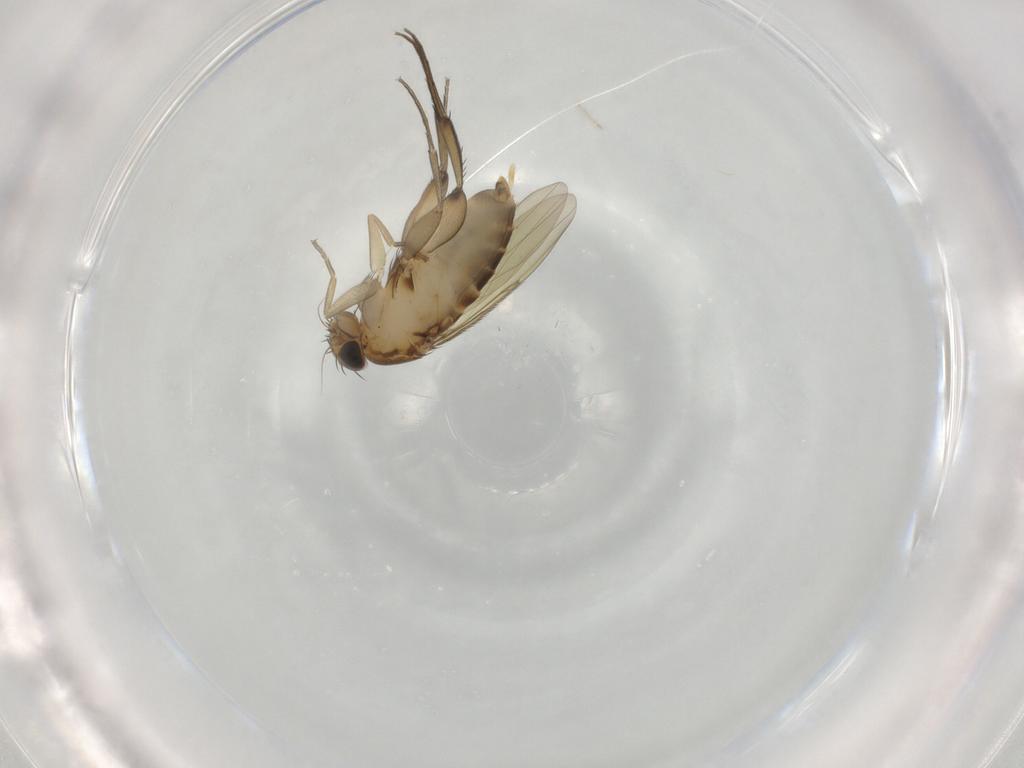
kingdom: Animalia
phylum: Arthropoda
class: Insecta
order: Diptera
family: Phoridae
